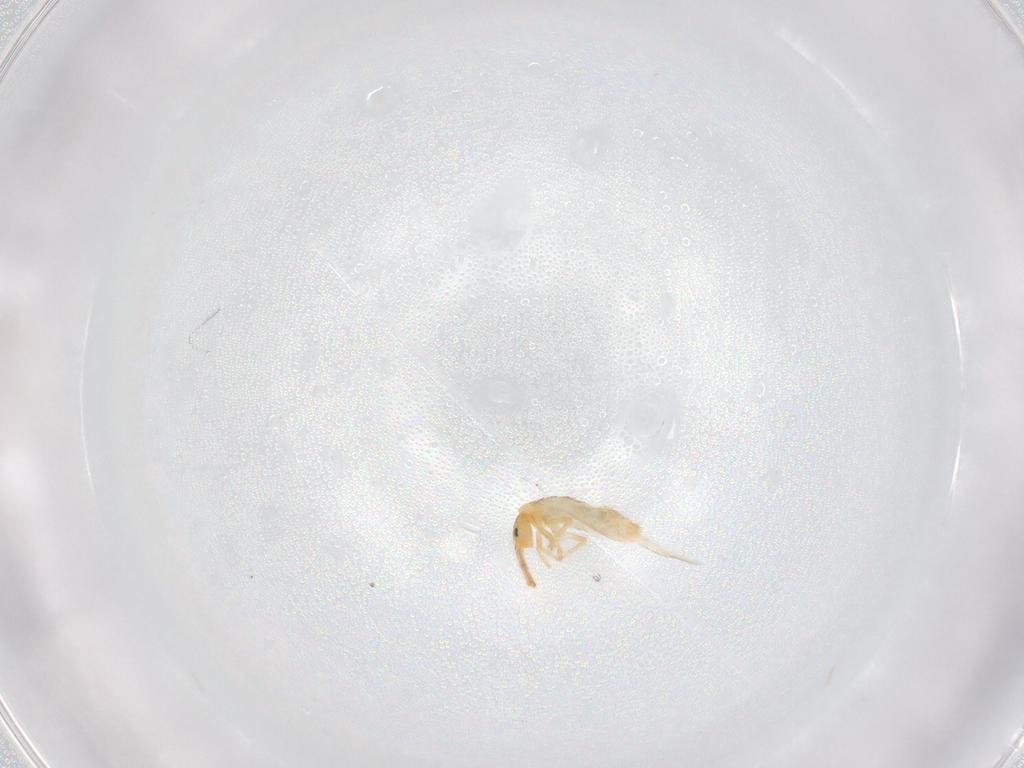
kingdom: Animalia
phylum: Arthropoda
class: Collembola
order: Entomobryomorpha
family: Entomobryidae
